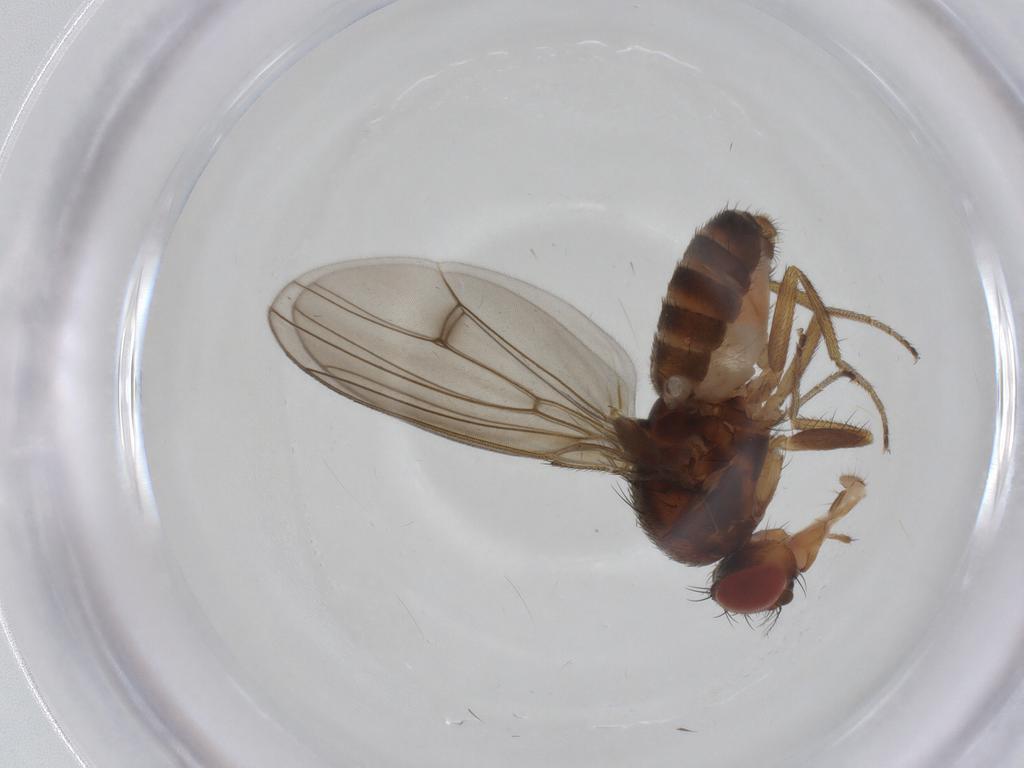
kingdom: Animalia
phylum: Arthropoda
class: Insecta
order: Diptera
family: Drosophilidae
